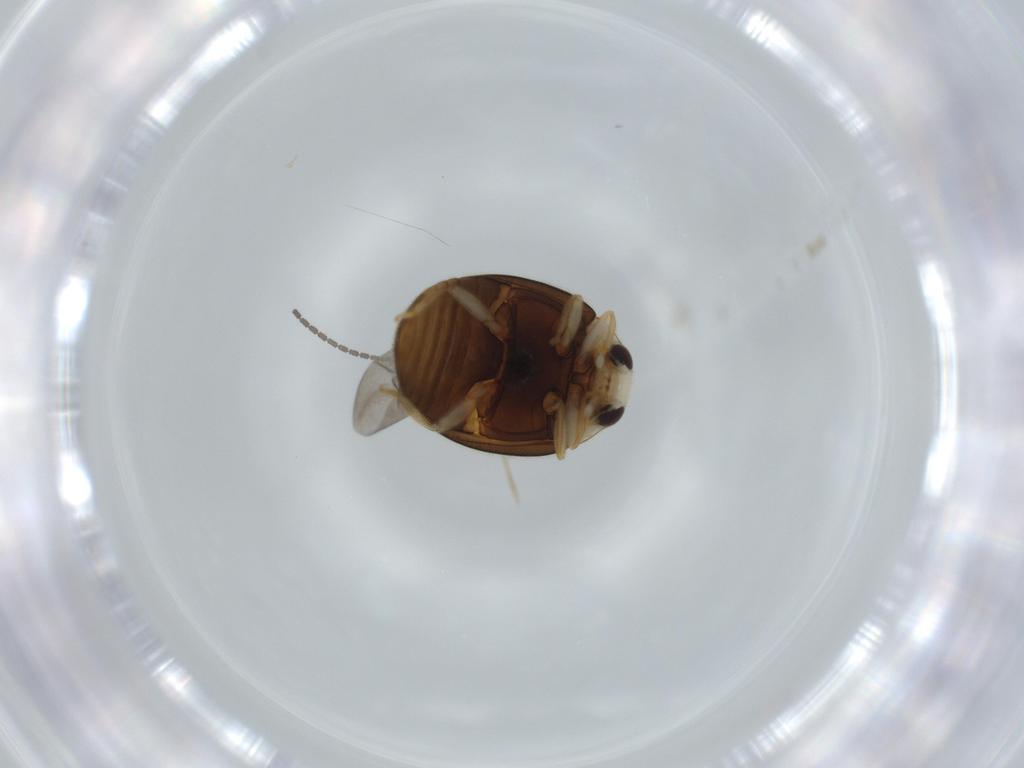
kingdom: Animalia
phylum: Arthropoda
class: Insecta
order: Coleoptera
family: Coccinellidae
